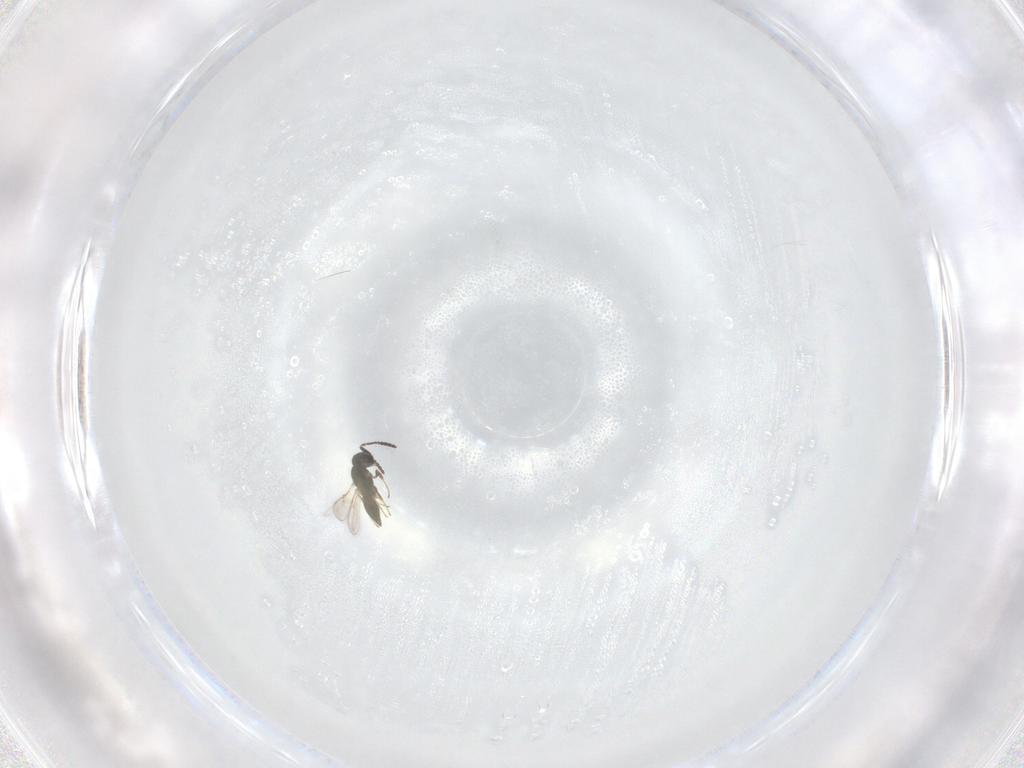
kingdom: Animalia
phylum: Arthropoda
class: Insecta
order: Hymenoptera
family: Scelionidae
